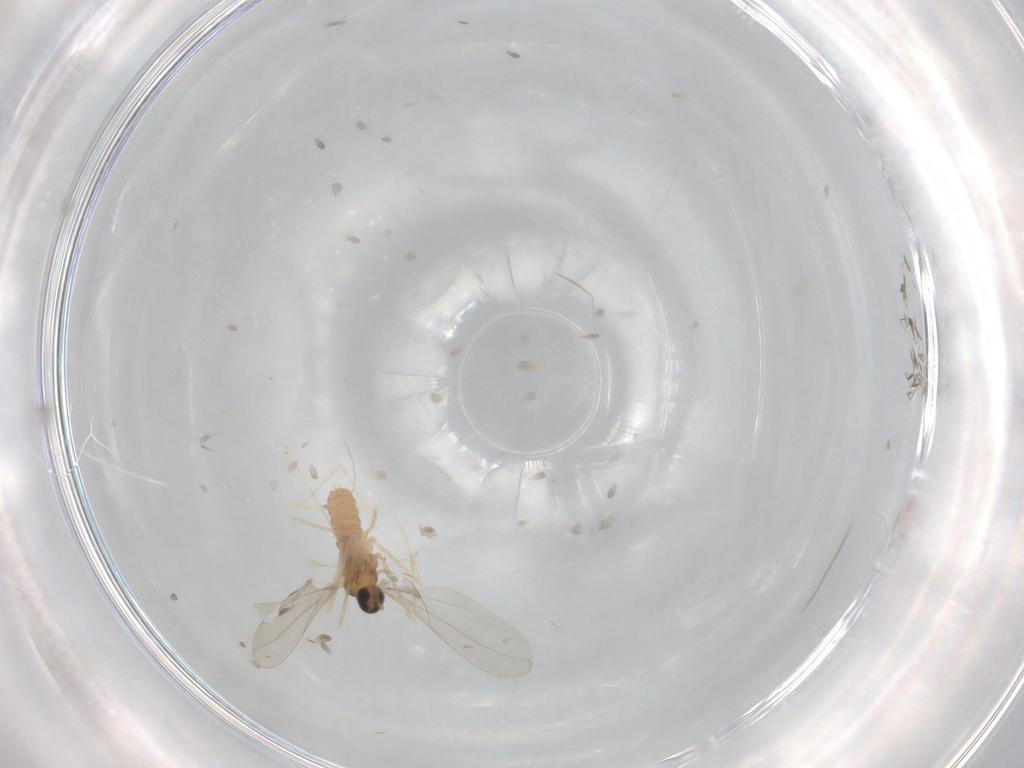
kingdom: Animalia
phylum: Arthropoda
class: Insecta
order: Diptera
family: Cecidomyiidae
